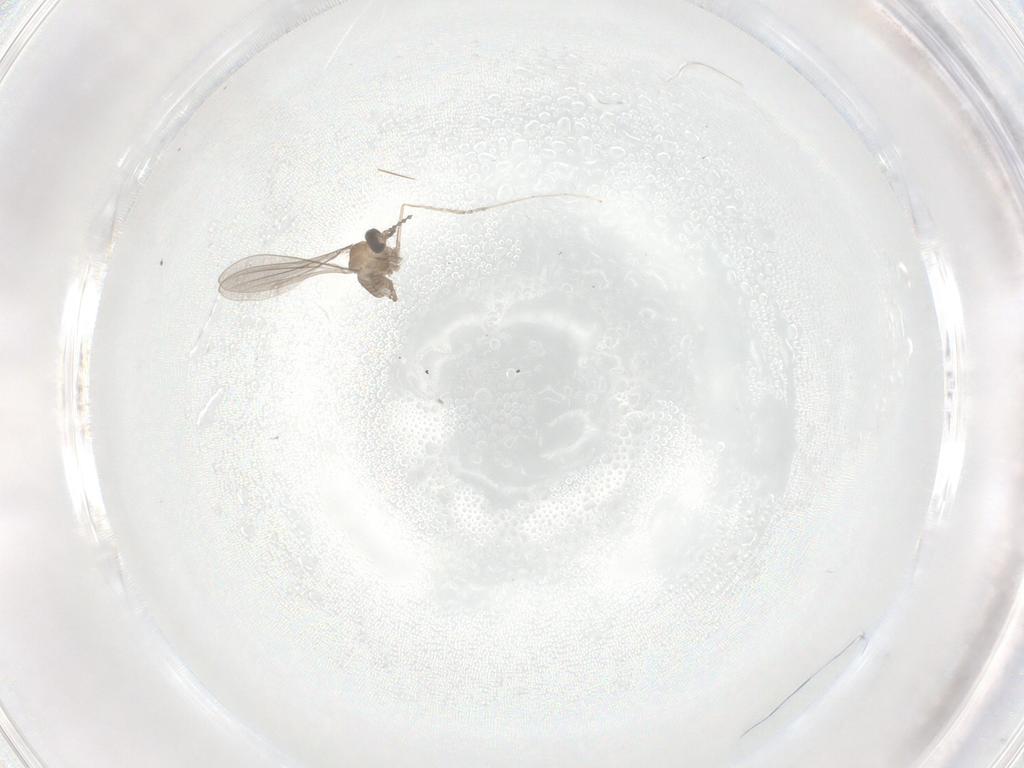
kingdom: Animalia
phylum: Arthropoda
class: Insecta
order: Diptera
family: Cecidomyiidae
